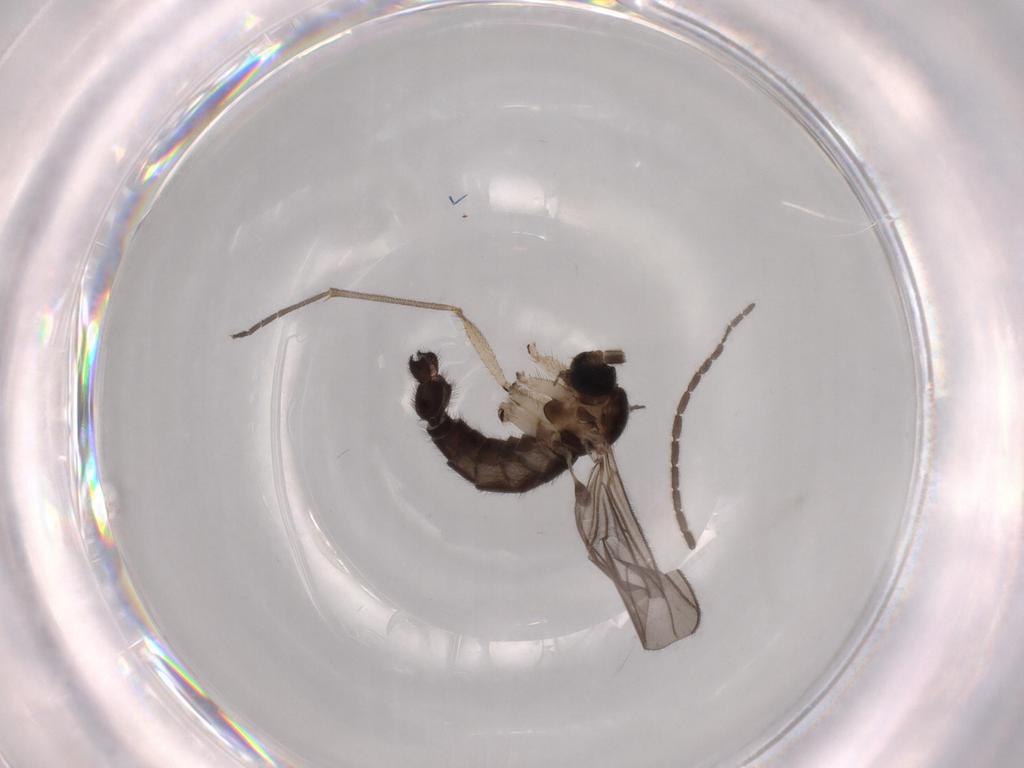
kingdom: Animalia
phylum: Arthropoda
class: Insecta
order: Diptera
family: Sciaridae
